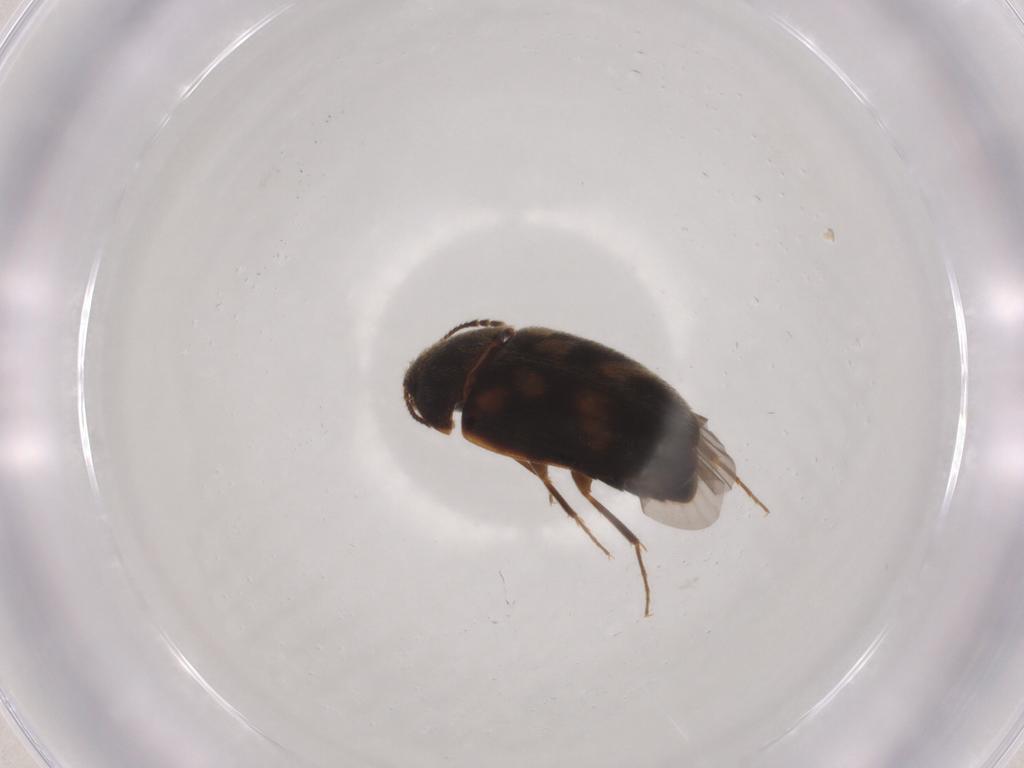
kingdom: Animalia
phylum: Arthropoda
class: Insecta
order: Coleoptera
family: Mycetophagidae
